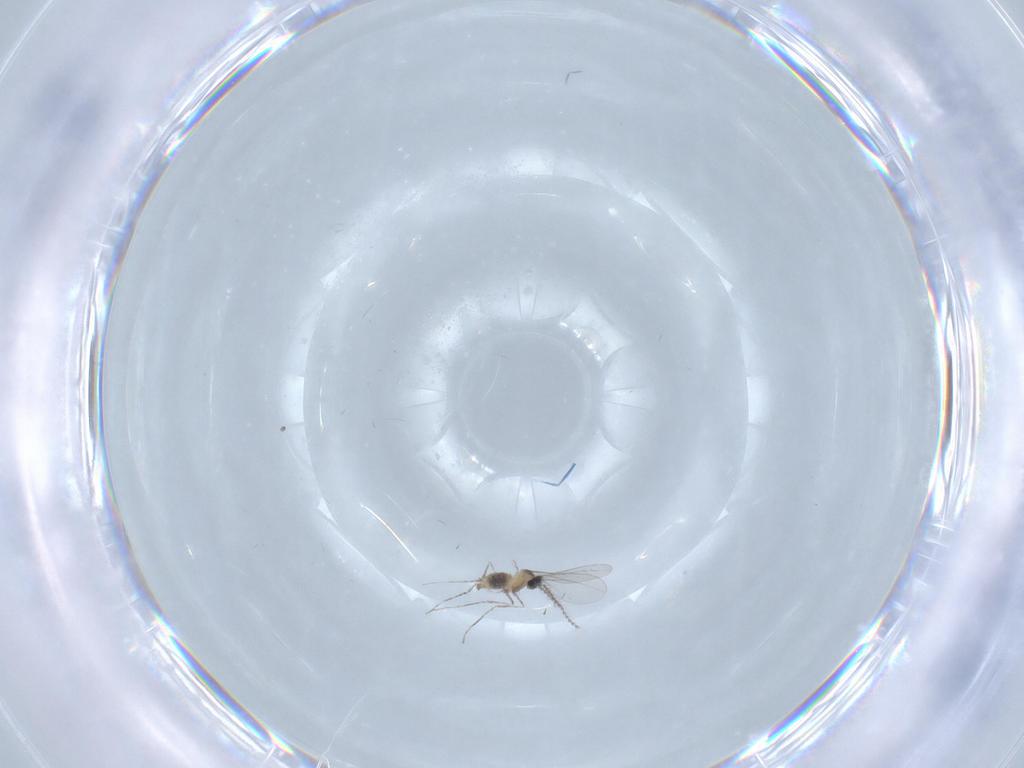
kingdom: Animalia
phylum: Arthropoda
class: Insecta
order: Diptera
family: Cecidomyiidae
